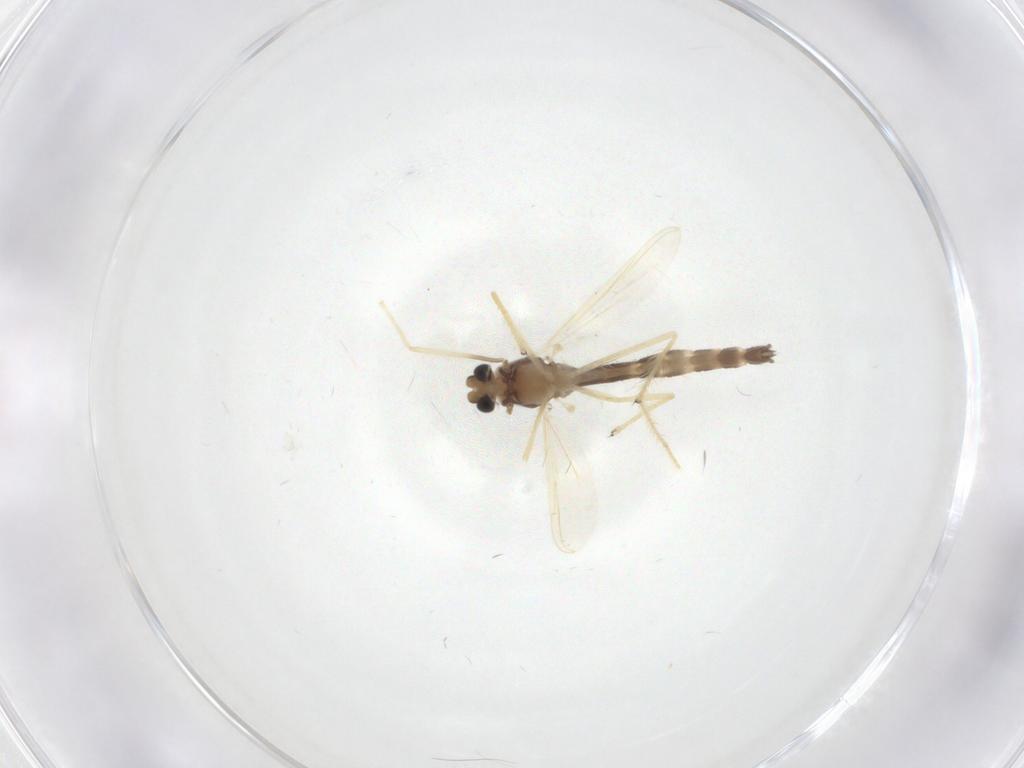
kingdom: Animalia
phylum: Arthropoda
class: Insecta
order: Diptera
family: Chironomidae
